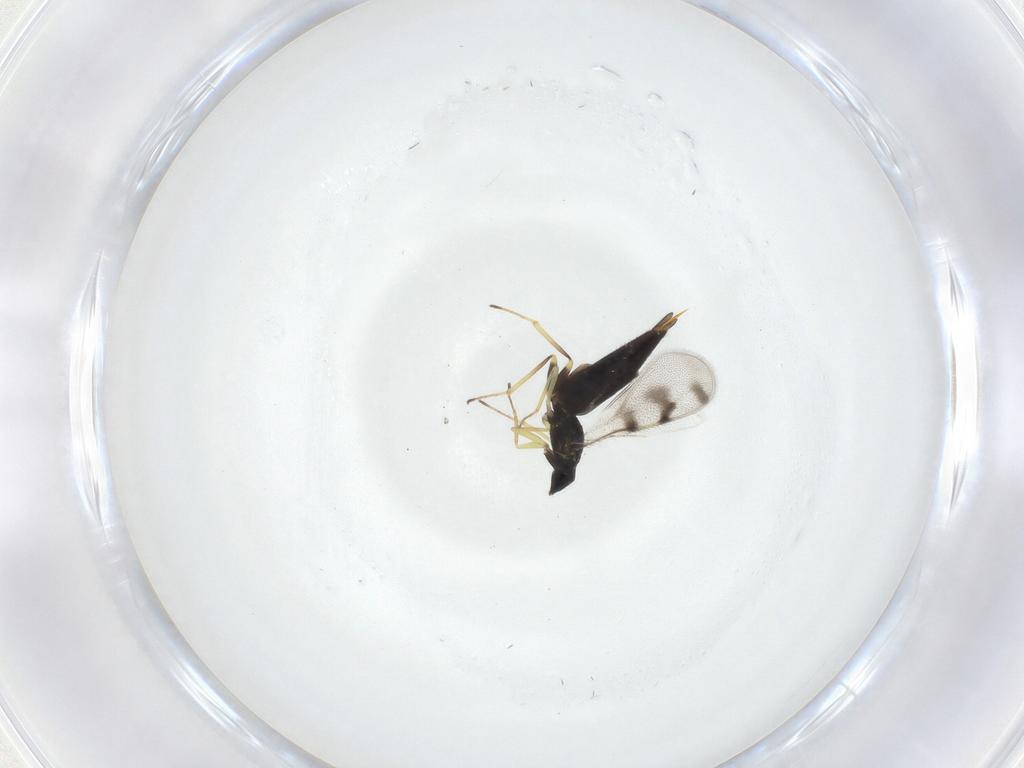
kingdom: Animalia
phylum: Arthropoda
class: Insecta
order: Hymenoptera
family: Eulophidae
